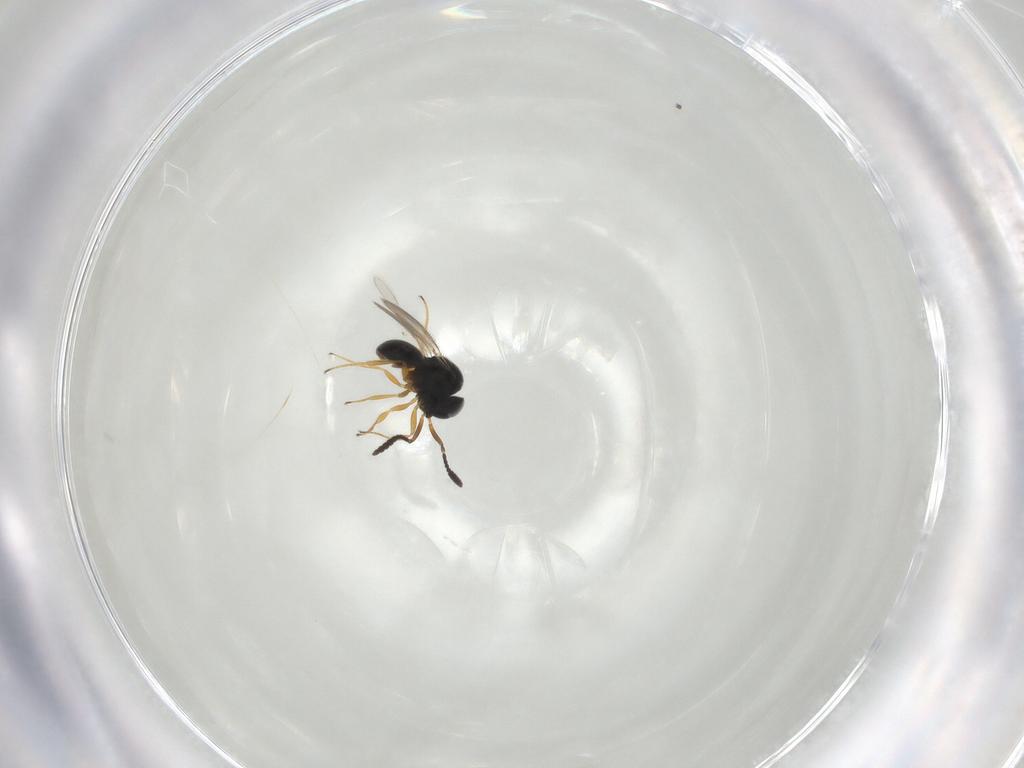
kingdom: Animalia
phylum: Arthropoda
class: Insecta
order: Hymenoptera
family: Scelionidae
